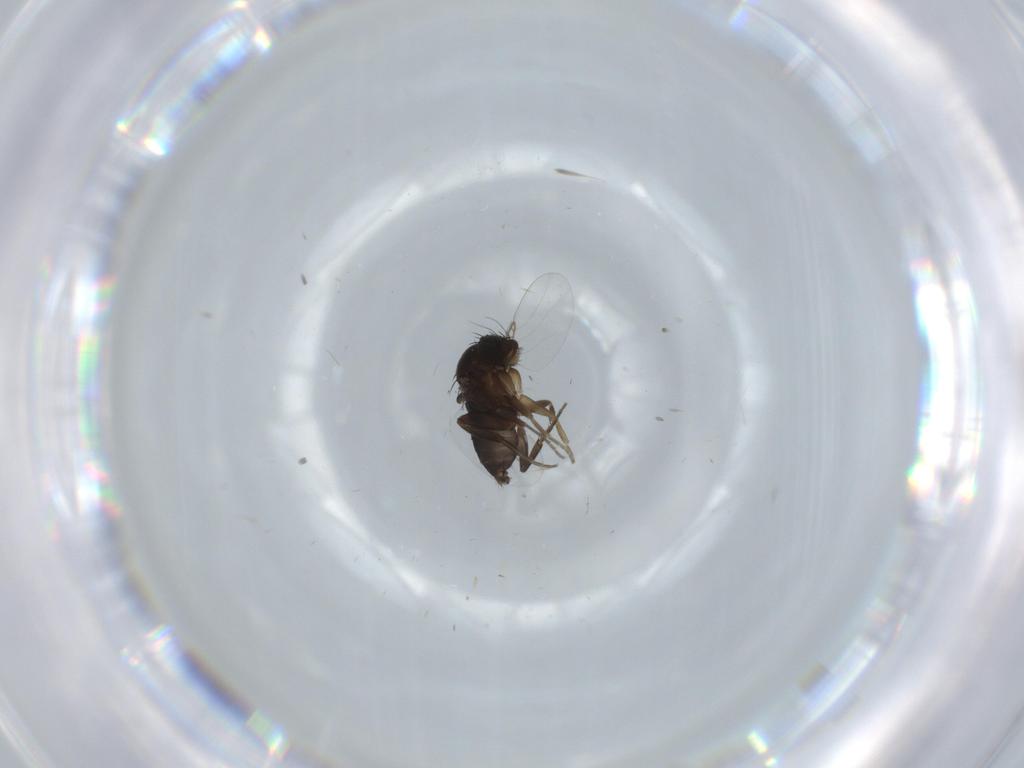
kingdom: Animalia
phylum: Arthropoda
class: Insecta
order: Diptera
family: Phoridae
